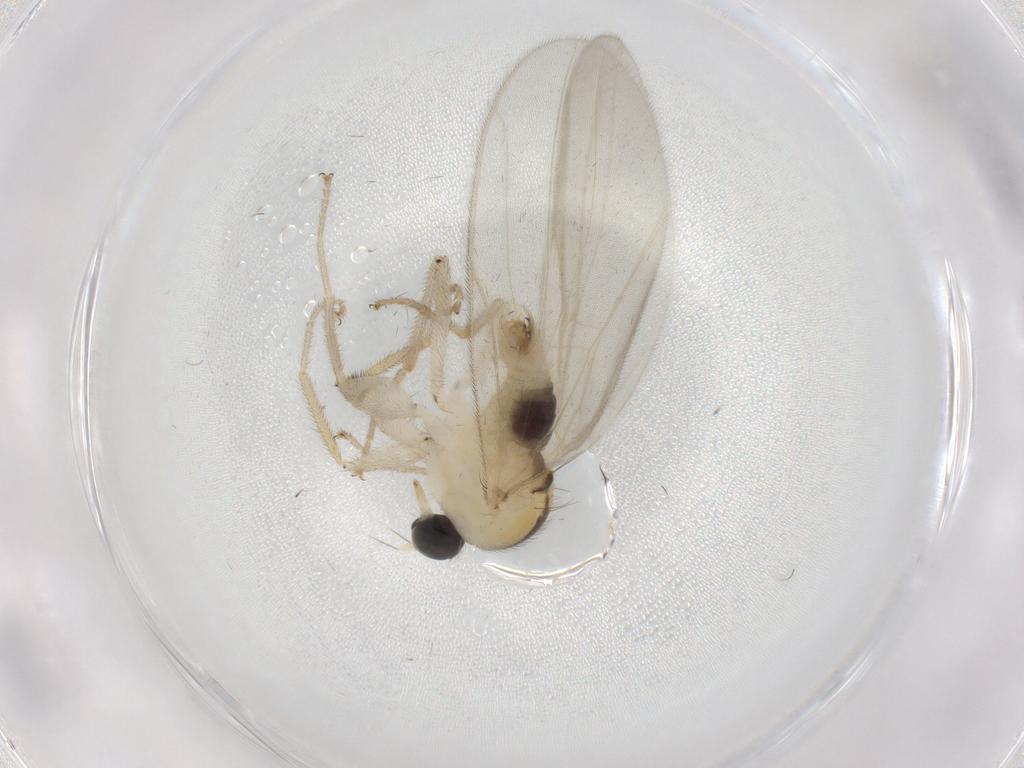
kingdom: Animalia
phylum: Arthropoda
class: Insecta
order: Diptera
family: Hybotidae
